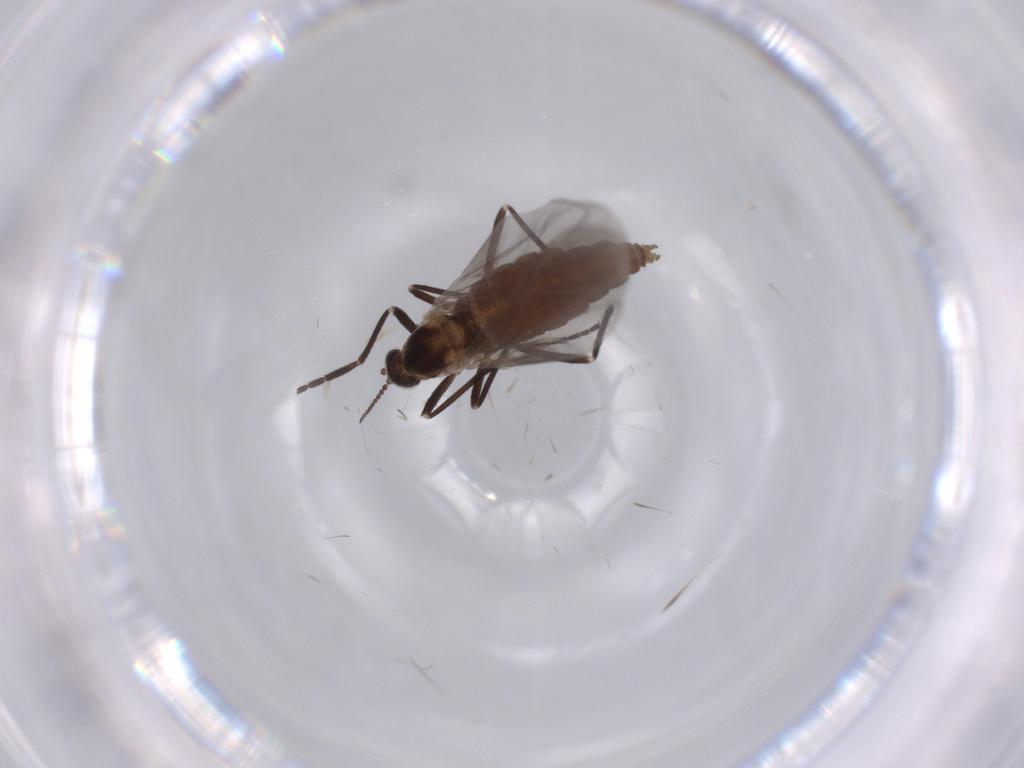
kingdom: Animalia
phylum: Arthropoda
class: Insecta
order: Diptera
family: Cecidomyiidae
